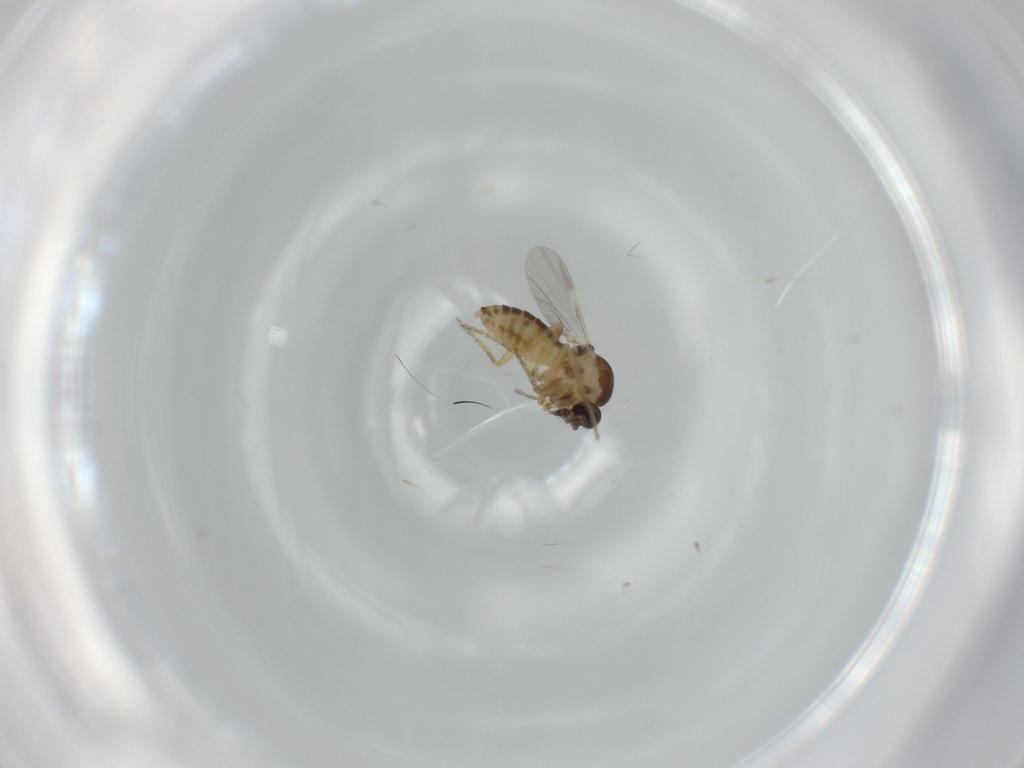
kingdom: Animalia
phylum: Arthropoda
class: Insecta
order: Diptera
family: Ceratopogonidae
